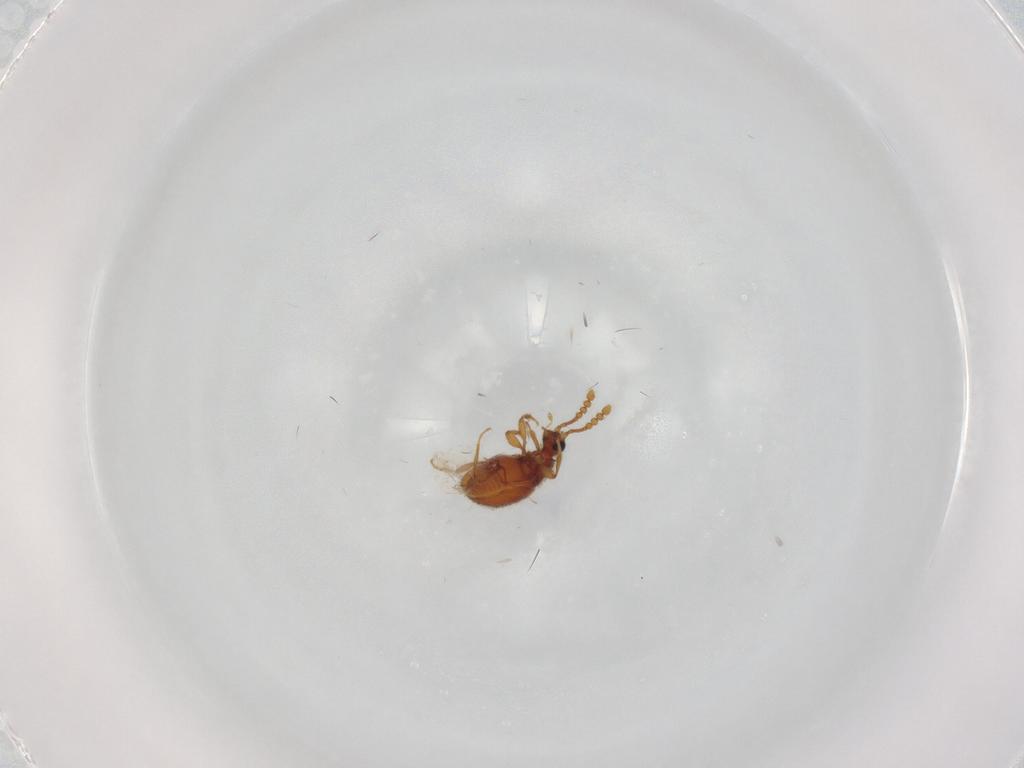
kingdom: Animalia
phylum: Arthropoda
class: Insecta
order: Coleoptera
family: Staphylinidae
